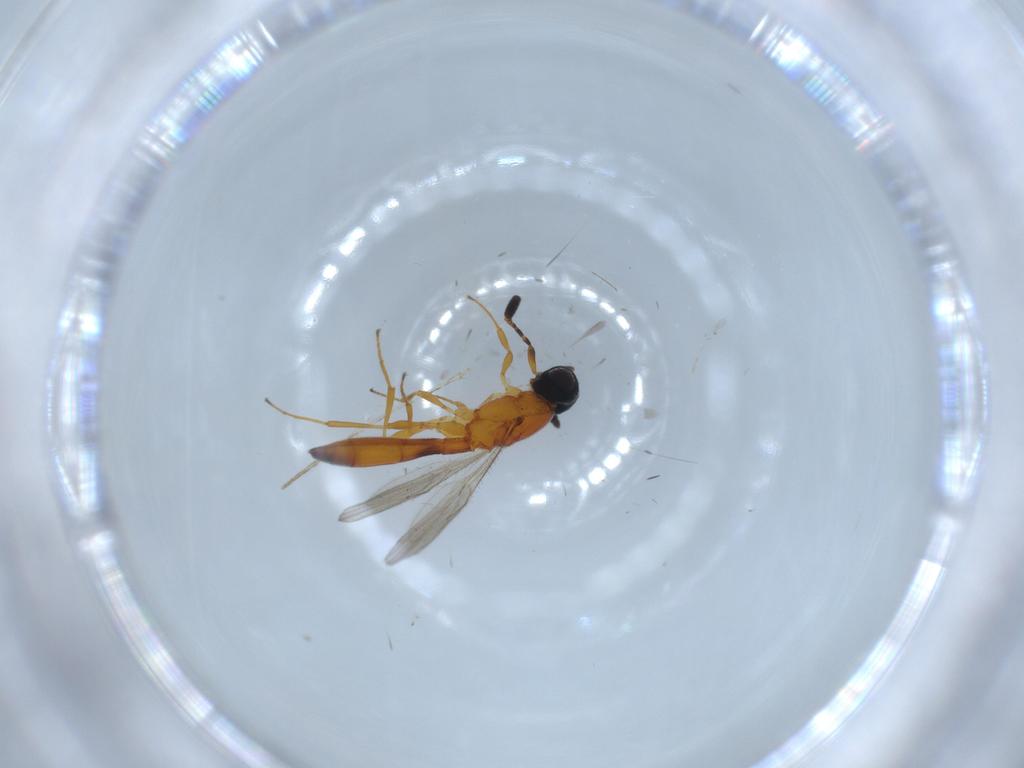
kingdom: Animalia
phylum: Arthropoda
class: Insecta
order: Hymenoptera
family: Scelionidae
